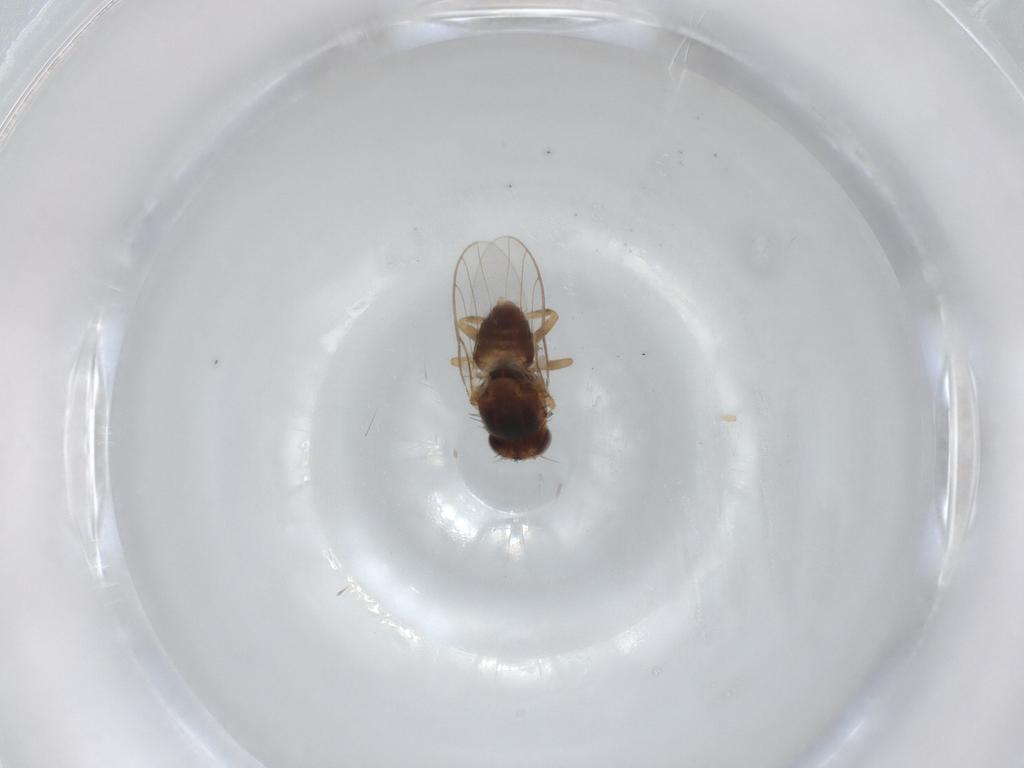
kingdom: Animalia
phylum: Arthropoda
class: Insecta
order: Diptera
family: Chloropidae
